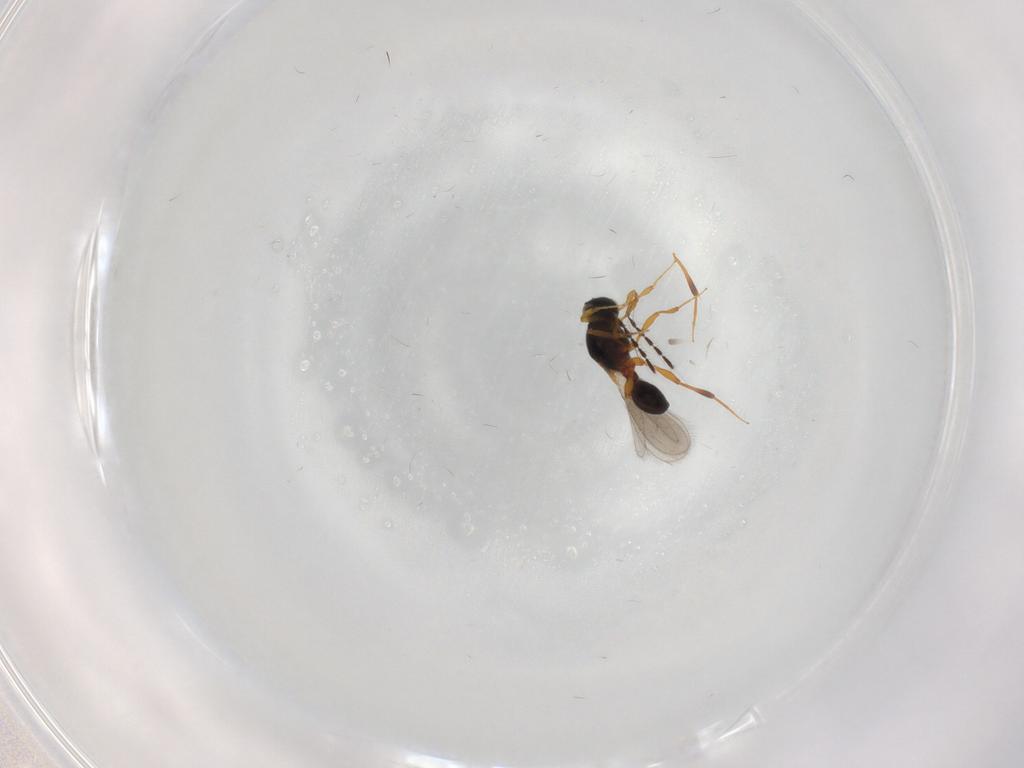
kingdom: Animalia
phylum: Arthropoda
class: Insecta
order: Hymenoptera
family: Platygastridae
